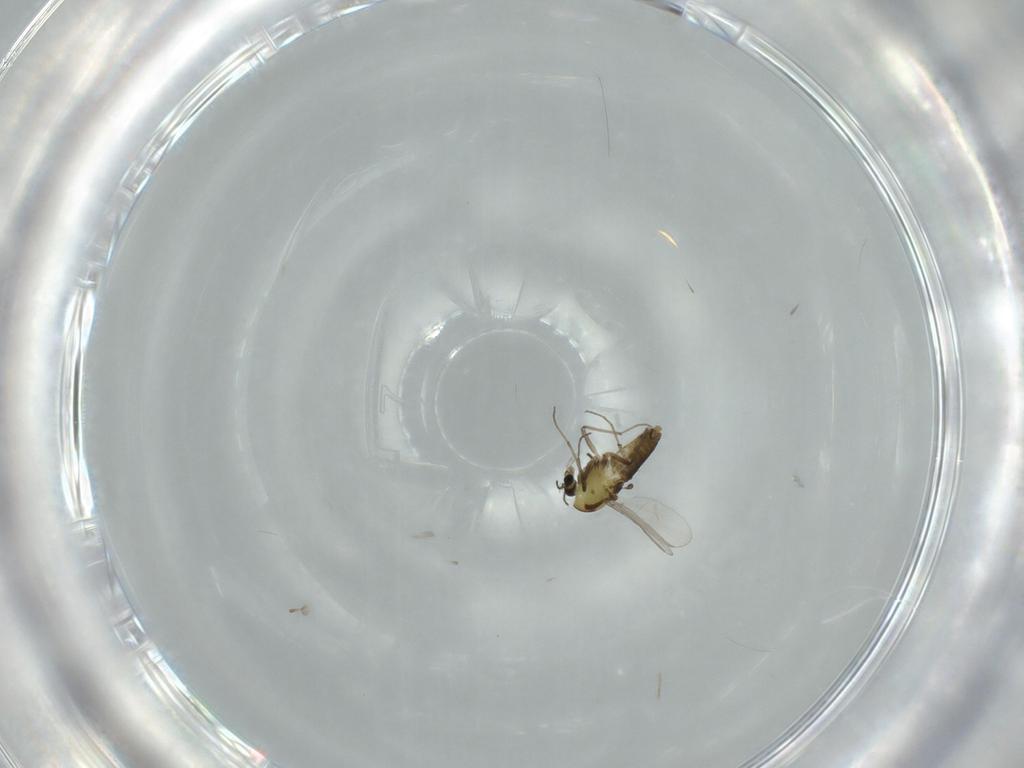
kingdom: Animalia
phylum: Arthropoda
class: Insecta
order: Diptera
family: Chironomidae
